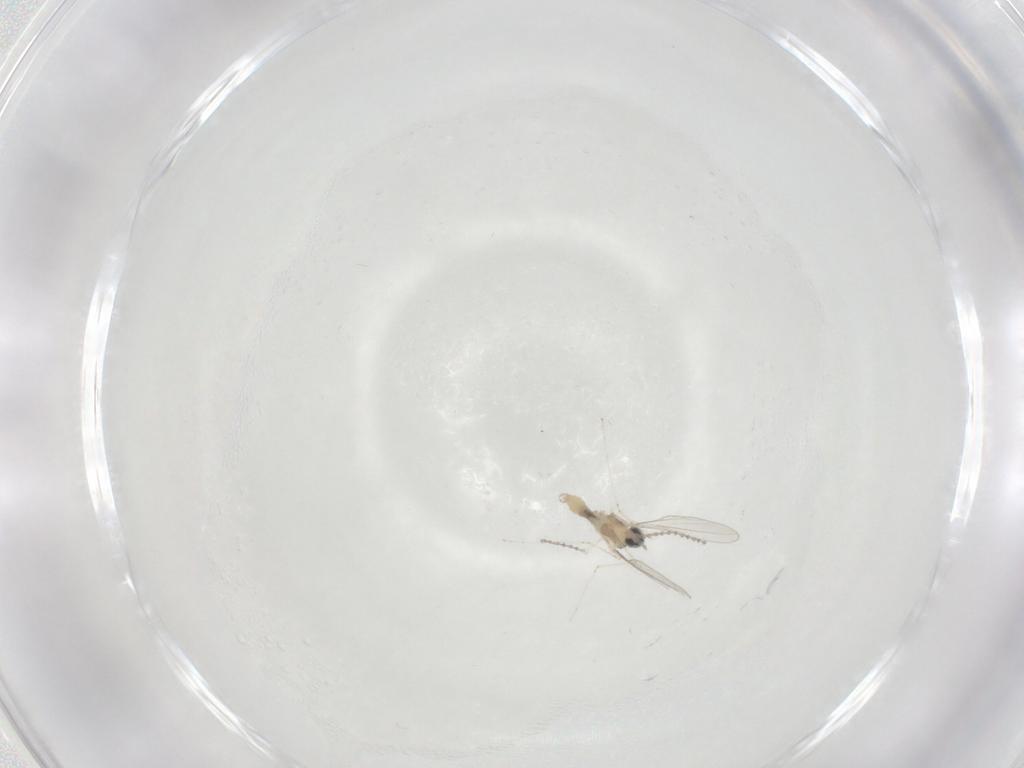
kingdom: Animalia
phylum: Arthropoda
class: Insecta
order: Diptera
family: Cecidomyiidae
